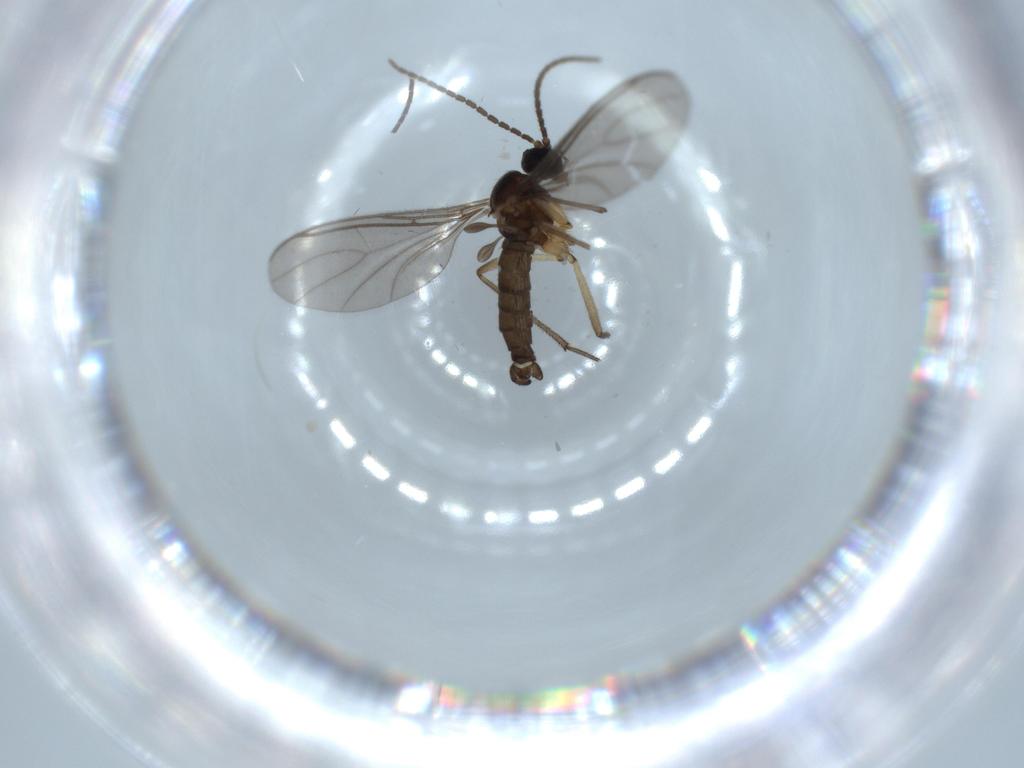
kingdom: Animalia
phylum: Arthropoda
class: Insecta
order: Diptera
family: Sciaridae
